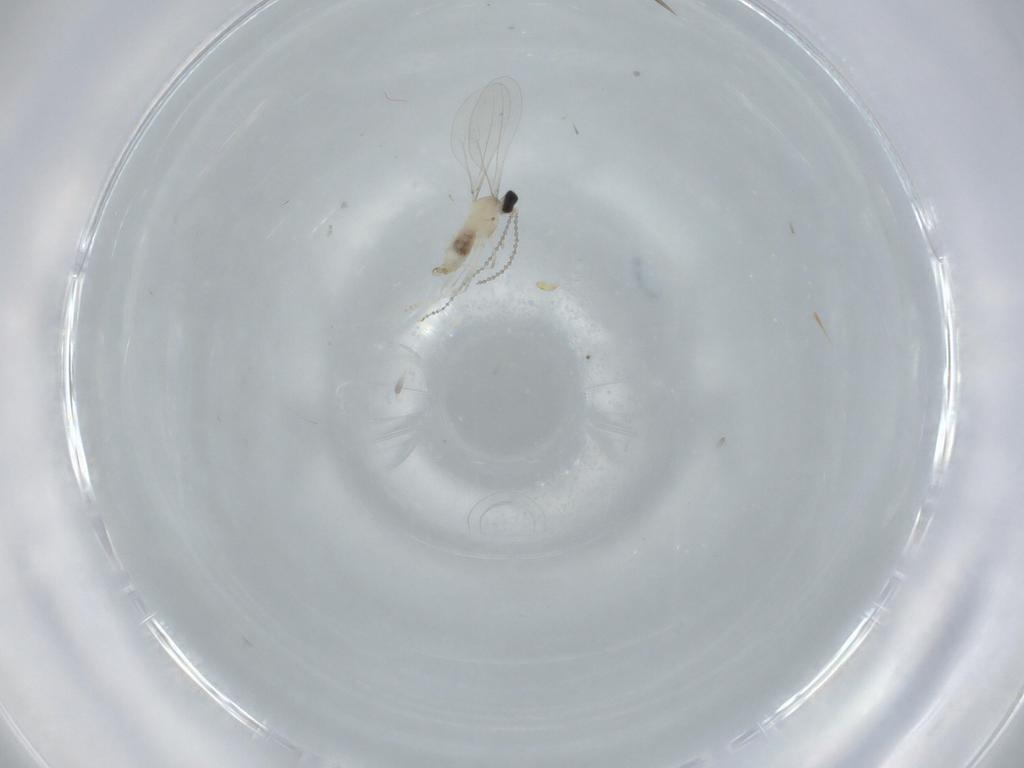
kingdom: Animalia
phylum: Arthropoda
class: Insecta
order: Diptera
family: Cecidomyiidae
